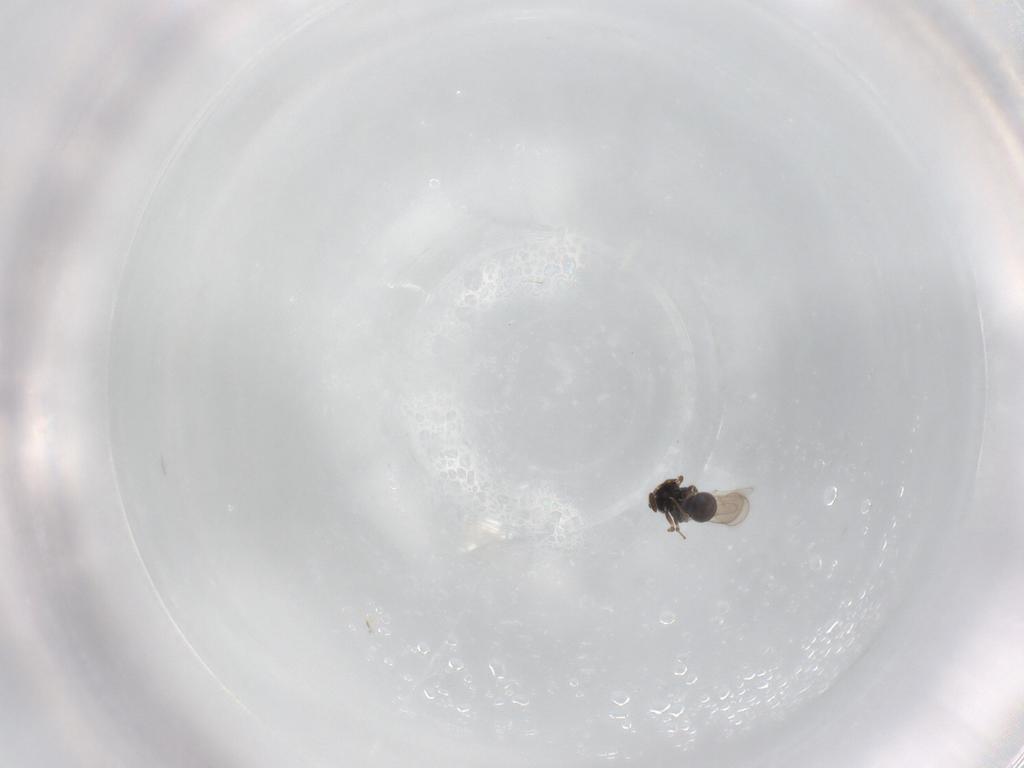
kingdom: Animalia
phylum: Arthropoda
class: Insecta
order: Hymenoptera
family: Scelionidae
